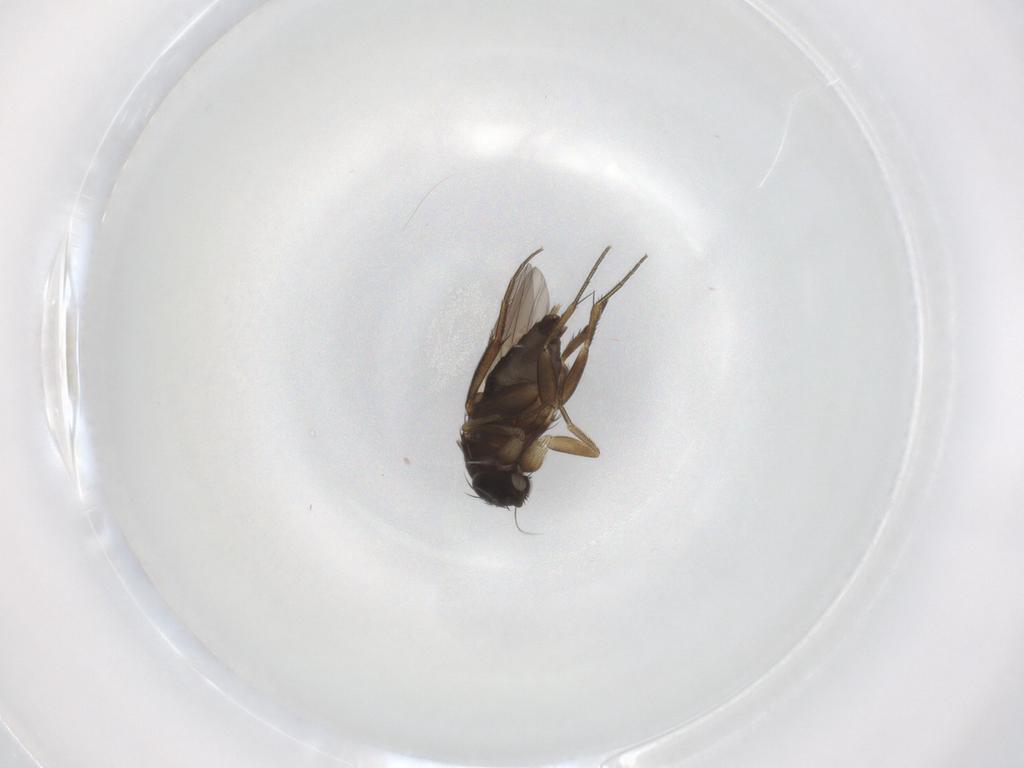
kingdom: Animalia
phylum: Arthropoda
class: Insecta
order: Diptera
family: Phoridae
